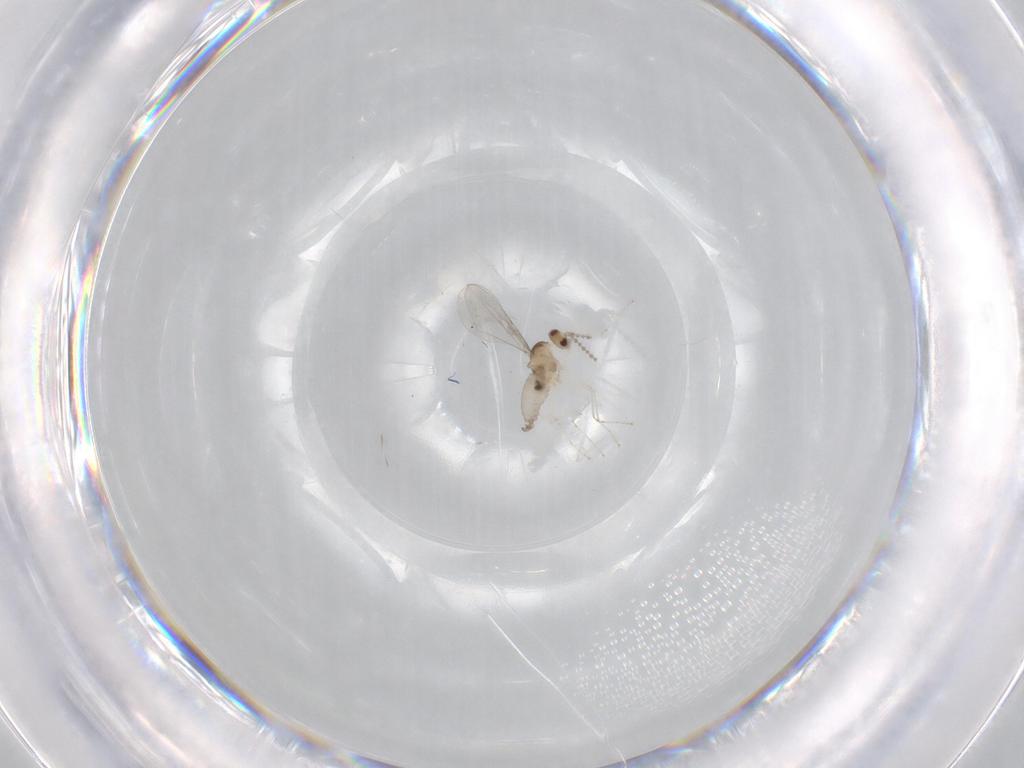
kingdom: Animalia
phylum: Arthropoda
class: Insecta
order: Diptera
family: Cecidomyiidae
